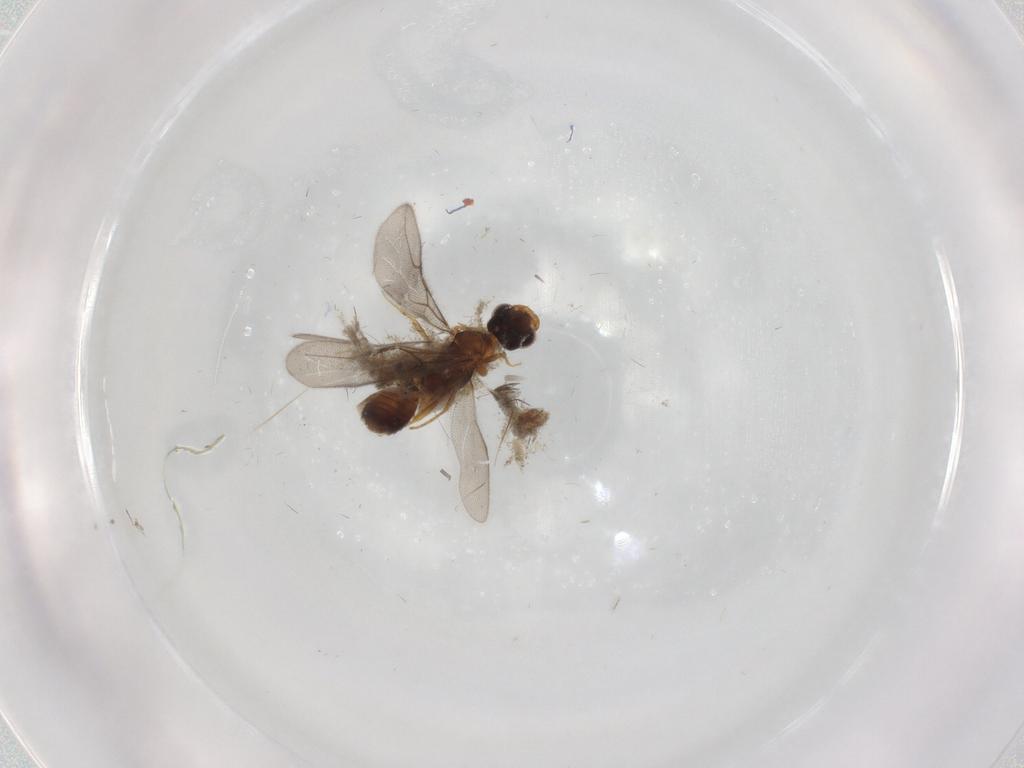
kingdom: Animalia
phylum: Arthropoda
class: Insecta
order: Hymenoptera
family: Formicidae
